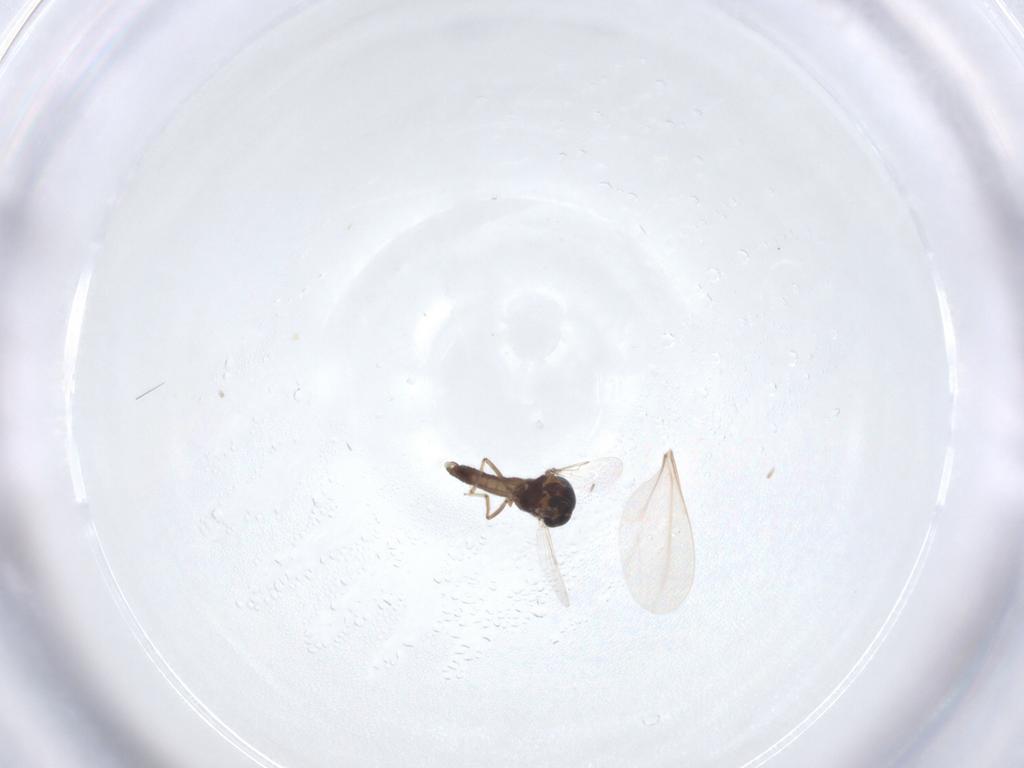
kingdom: Animalia
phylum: Arthropoda
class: Insecta
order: Diptera
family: Ceratopogonidae
